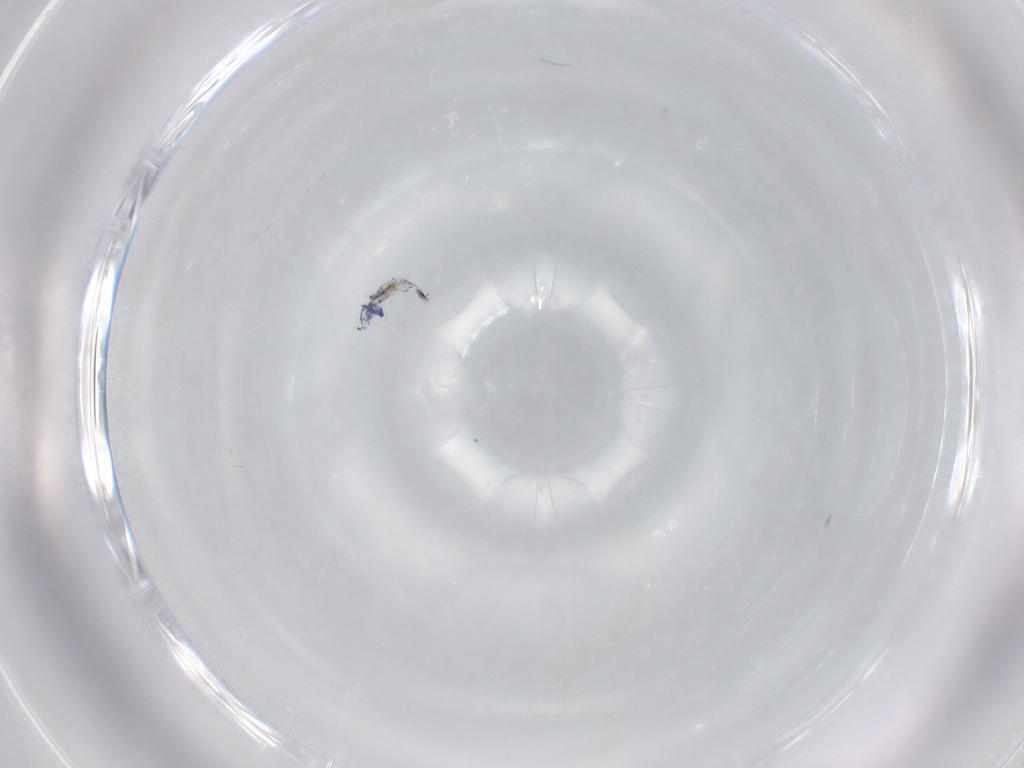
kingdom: Animalia
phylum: Arthropoda
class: Collembola
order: Entomobryomorpha
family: Entomobryidae
